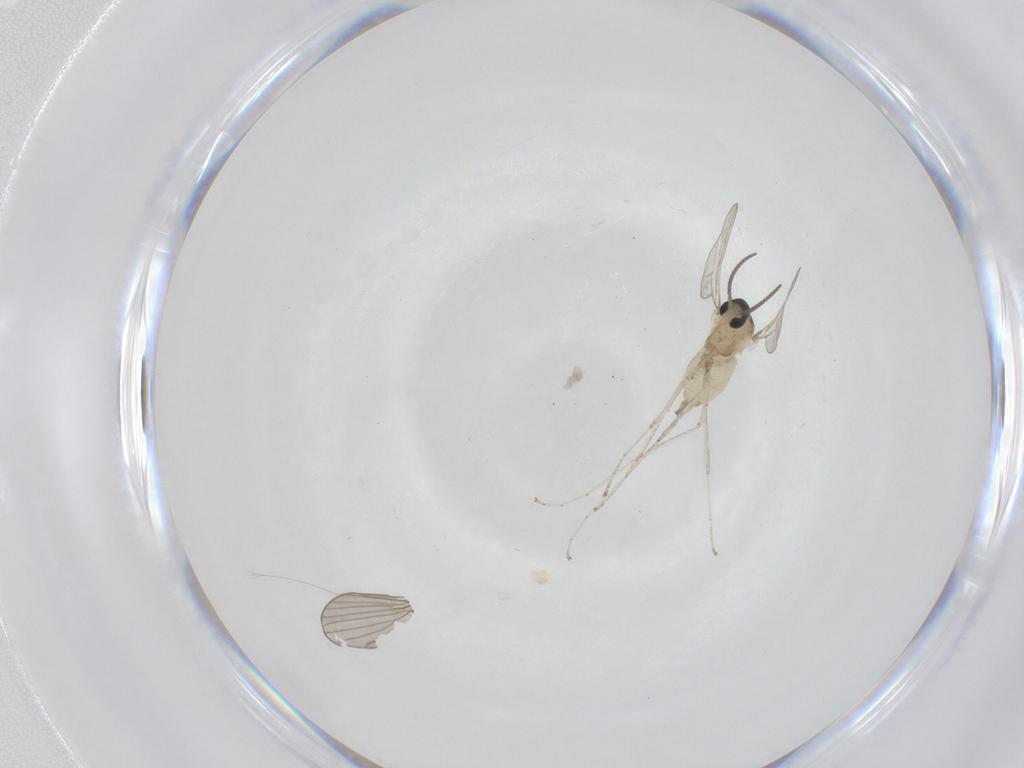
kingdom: Animalia
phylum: Arthropoda
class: Insecta
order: Diptera
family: Cecidomyiidae
